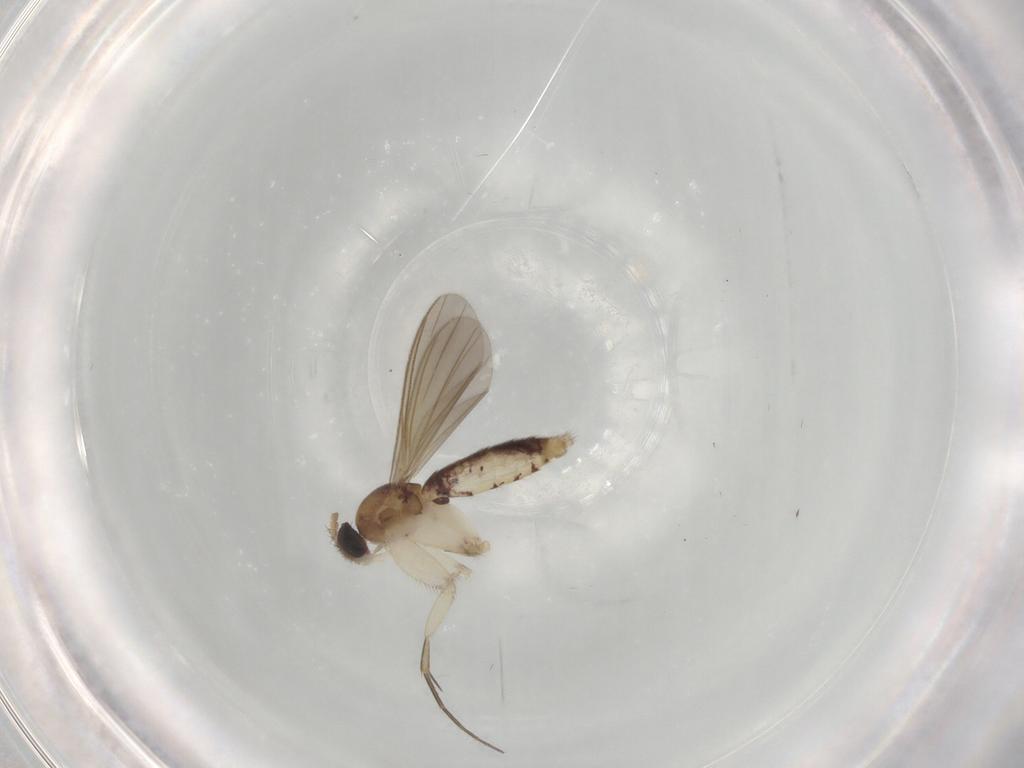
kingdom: Animalia
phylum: Arthropoda
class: Insecta
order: Diptera
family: Mycetophilidae
